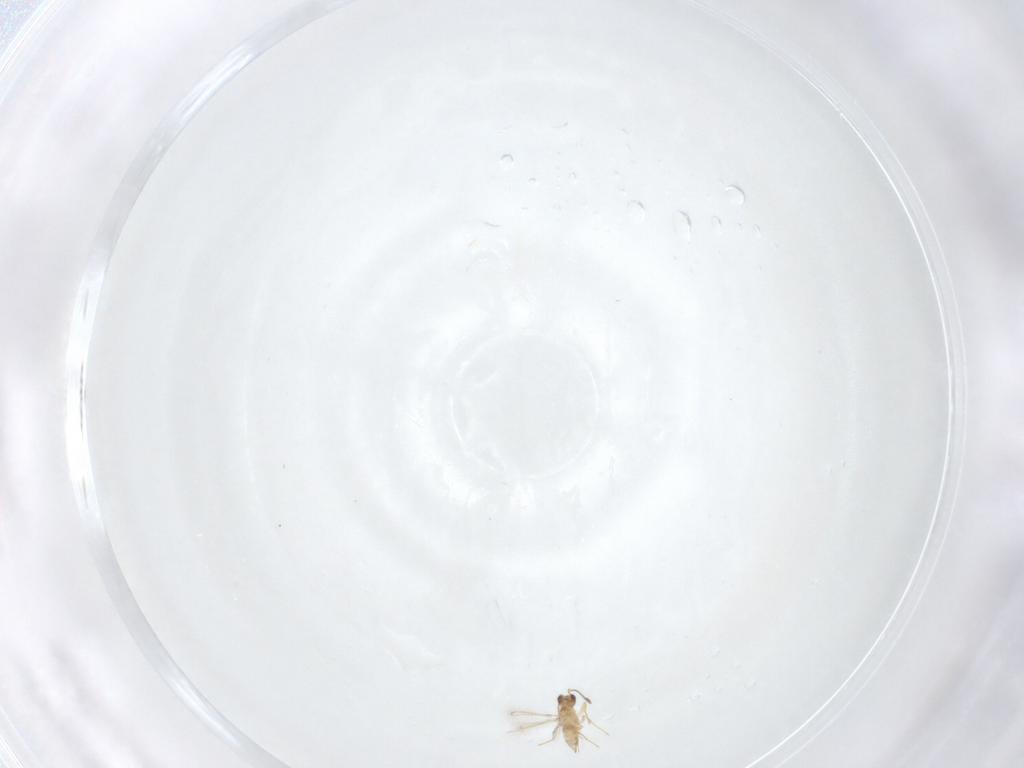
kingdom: Animalia
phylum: Arthropoda
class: Insecta
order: Hymenoptera
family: Mymaridae
